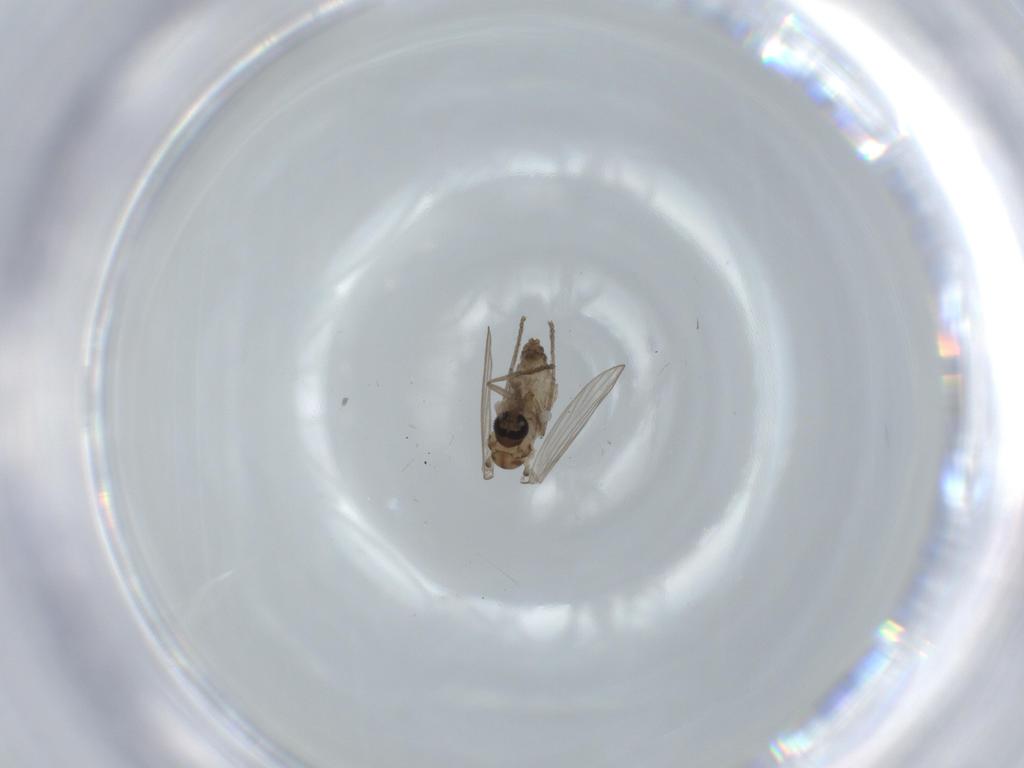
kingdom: Animalia
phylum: Arthropoda
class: Insecta
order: Diptera
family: Psychodidae
